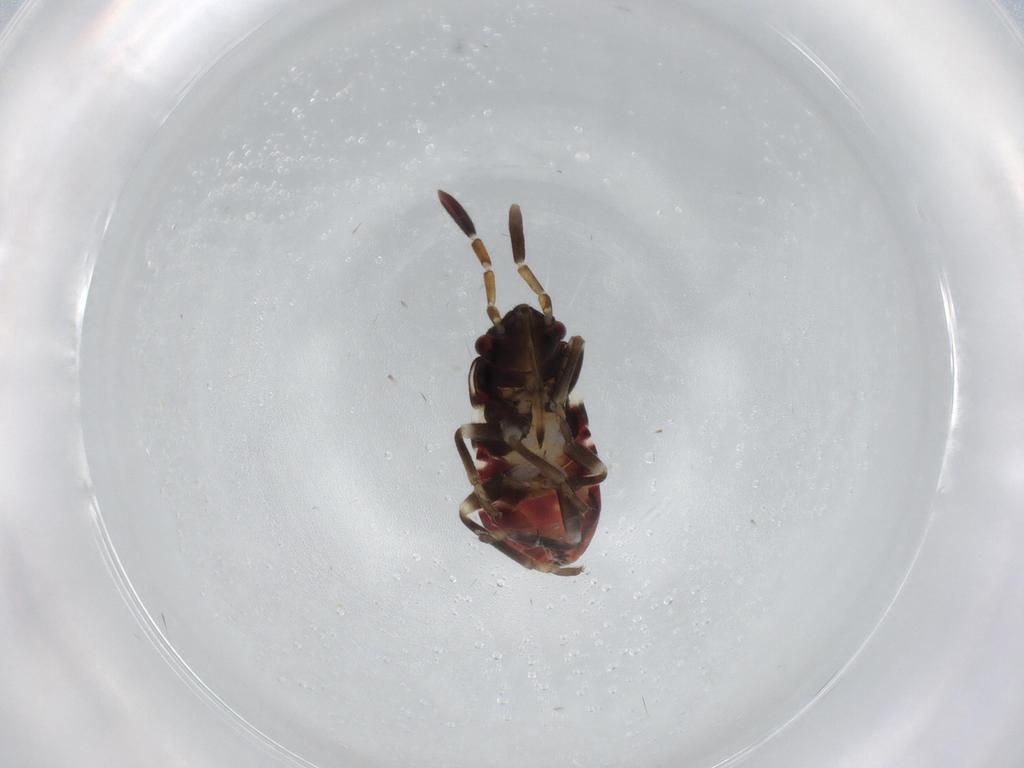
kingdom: Animalia
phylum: Arthropoda
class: Insecta
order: Hemiptera
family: Rhyparochromidae
